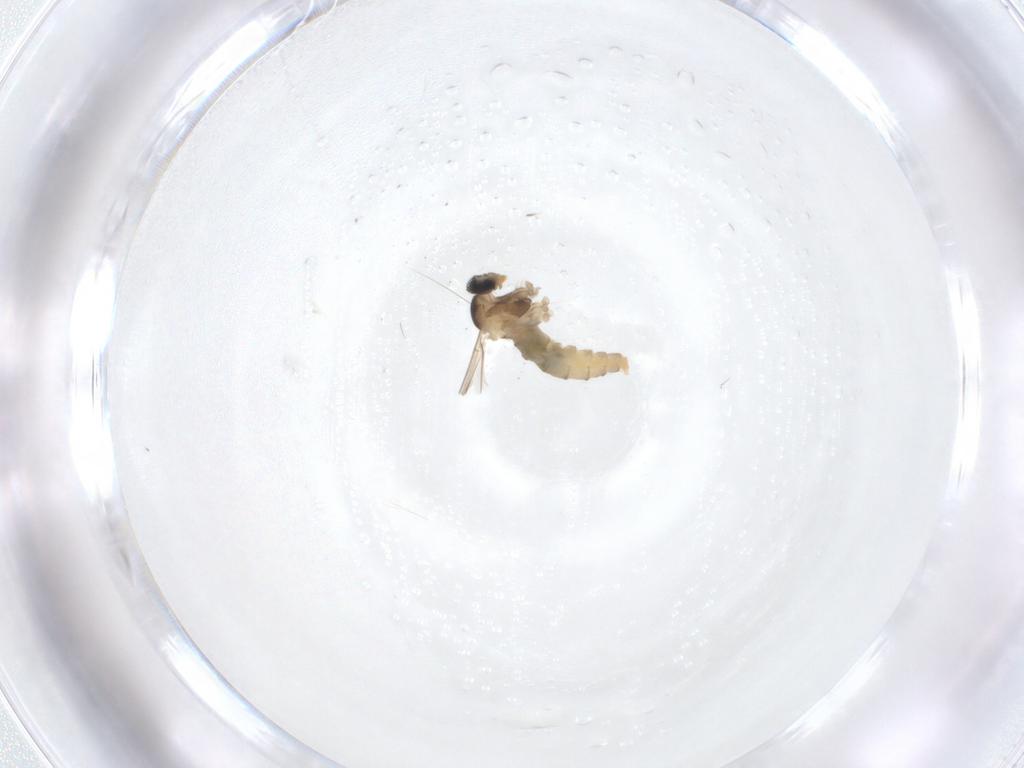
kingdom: Animalia
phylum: Arthropoda
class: Insecta
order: Diptera
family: Cecidomyiidae
